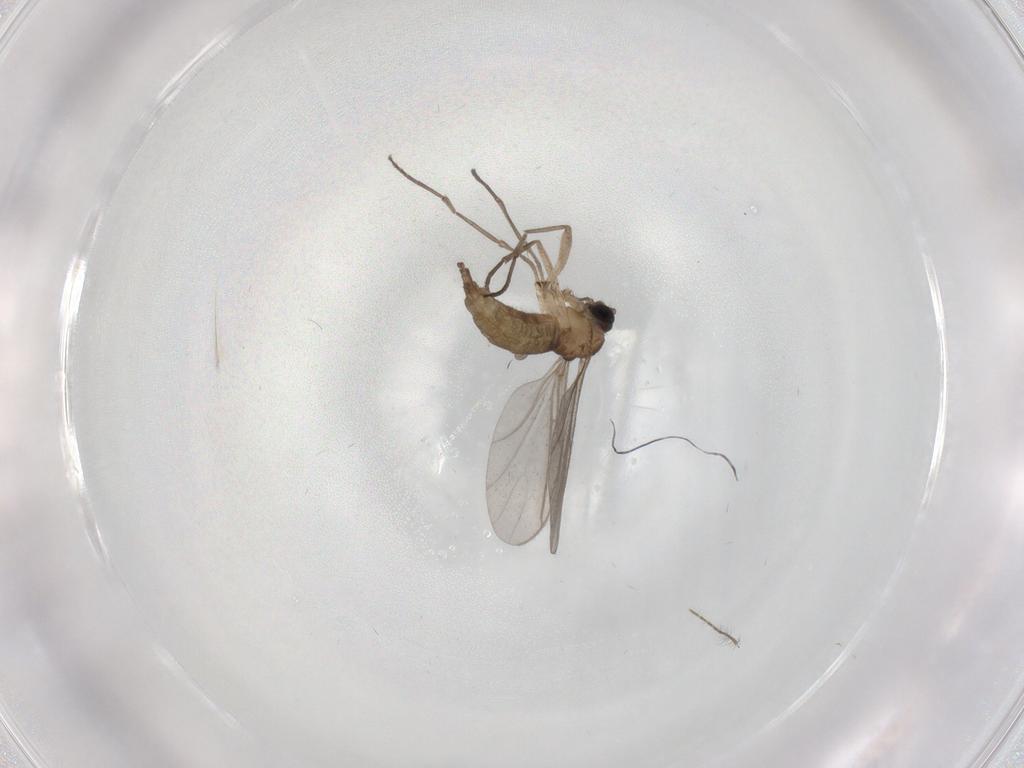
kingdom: Animalia
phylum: Arthropoda
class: Insecta
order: Diptera
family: Sciaridae
